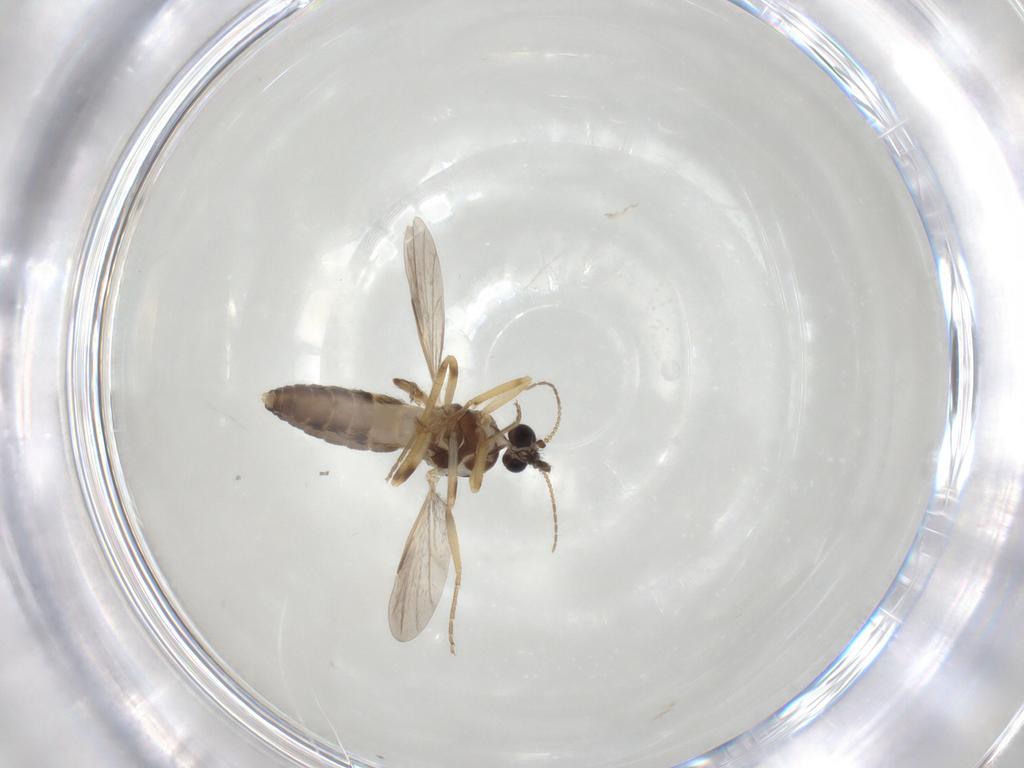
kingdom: Animalia
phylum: Arthropoda
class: Insecta
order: Diptera
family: Ceratopogonidae
